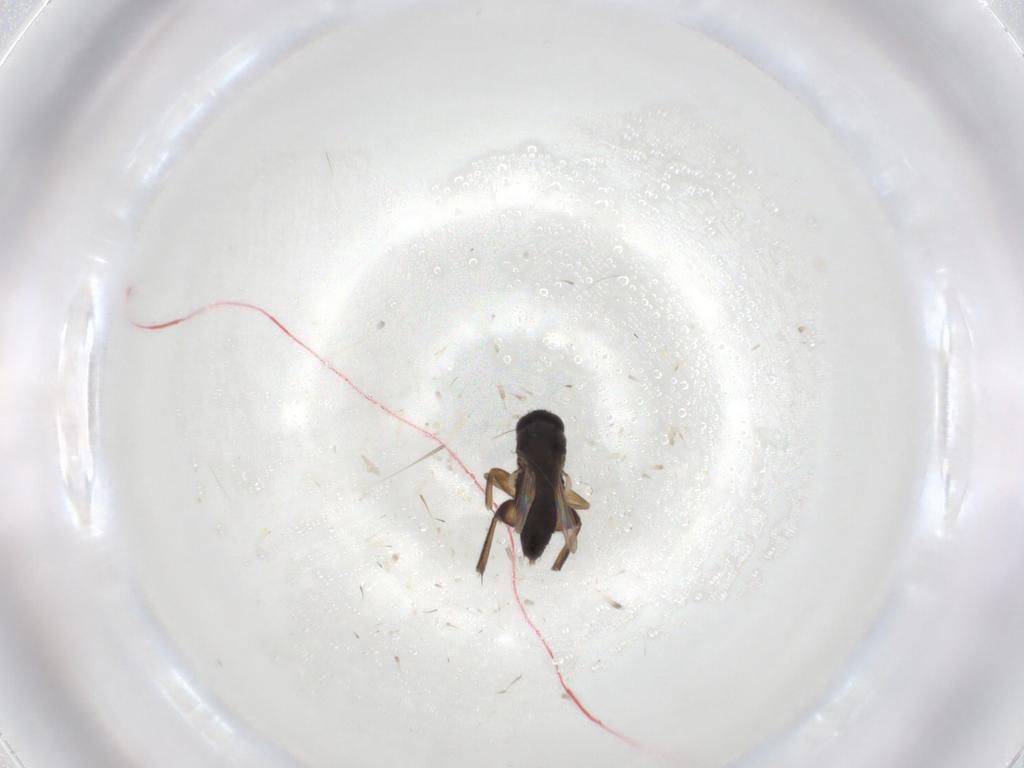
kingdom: Animalia
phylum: Arthropoda
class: Insecta
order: Diptera
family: Phoridae
